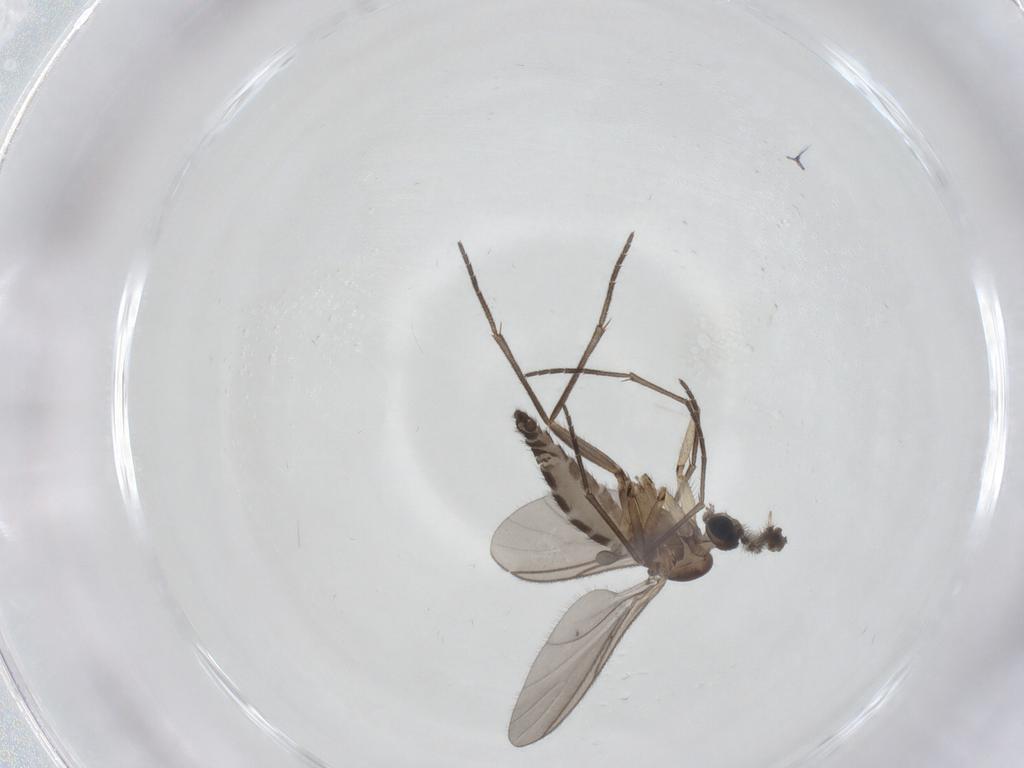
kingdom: Animalia
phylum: Arthropoda
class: Insecta
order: Diptera
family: Sciaridae
